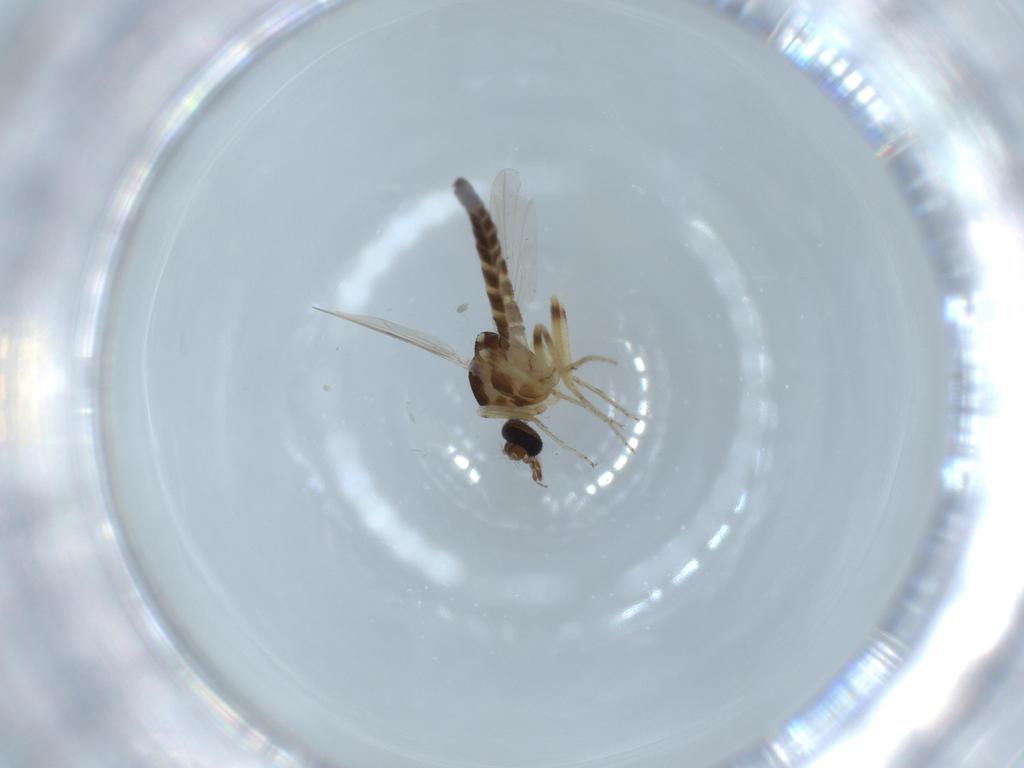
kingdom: Animalia
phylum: Arthropoda
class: Insecta
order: Diptera
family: Ceratopogonidae
